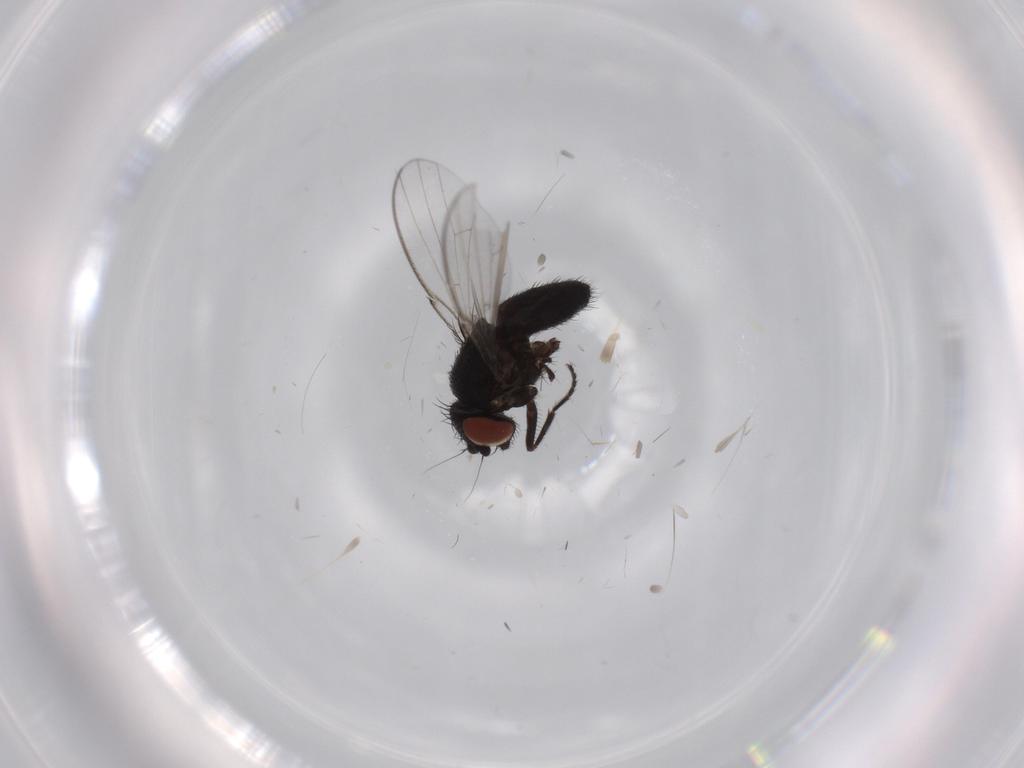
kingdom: Animalia
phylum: Arthropoda
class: Insecta
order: Diptera
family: Milichiidae
